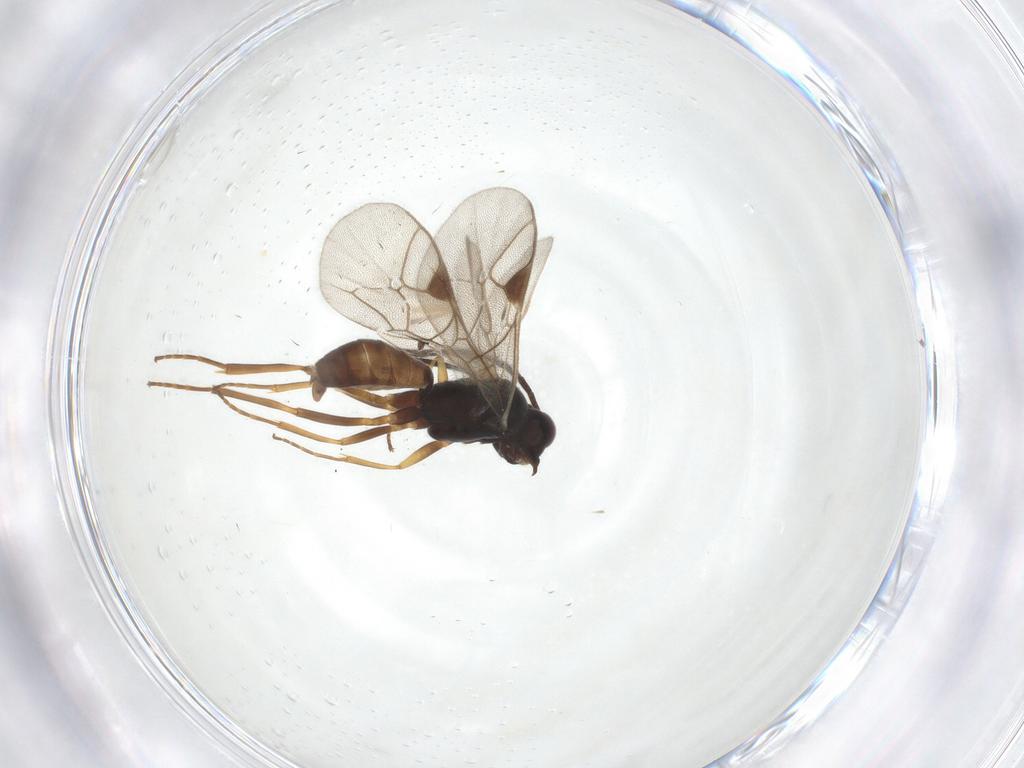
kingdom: Animalia
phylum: Arthropoda
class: Insecta
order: Hymenoptera
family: Ichneumonidae
